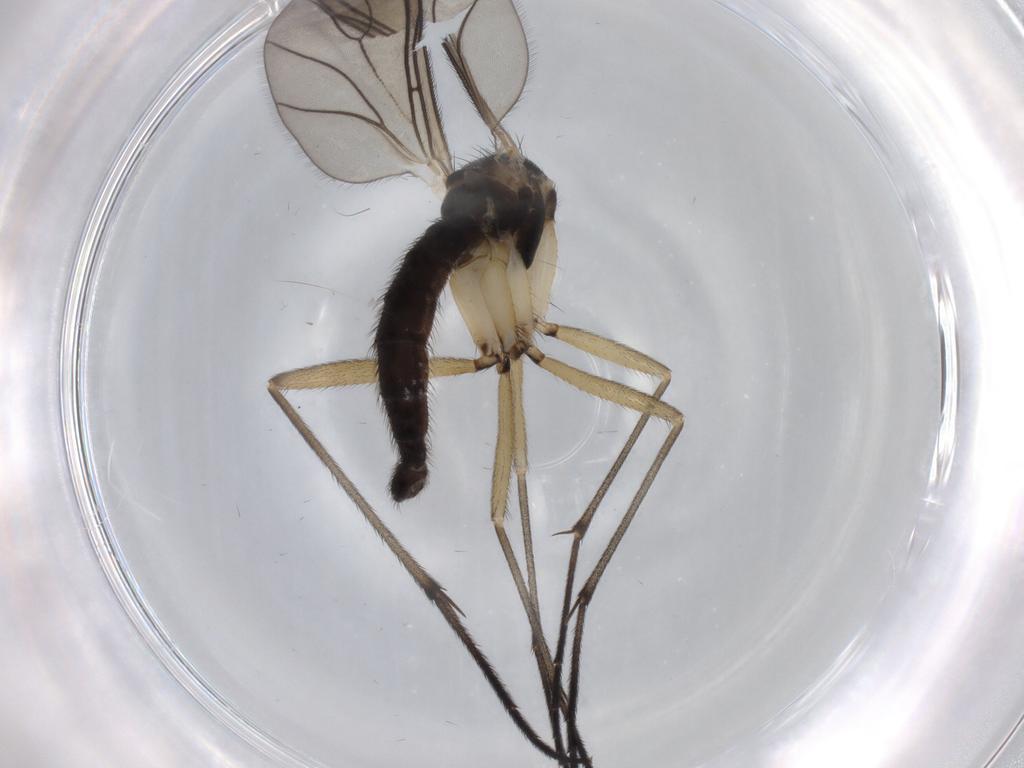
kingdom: Animalia
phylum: Arthropoda
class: Insecta
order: Diptera
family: Sciaridae
